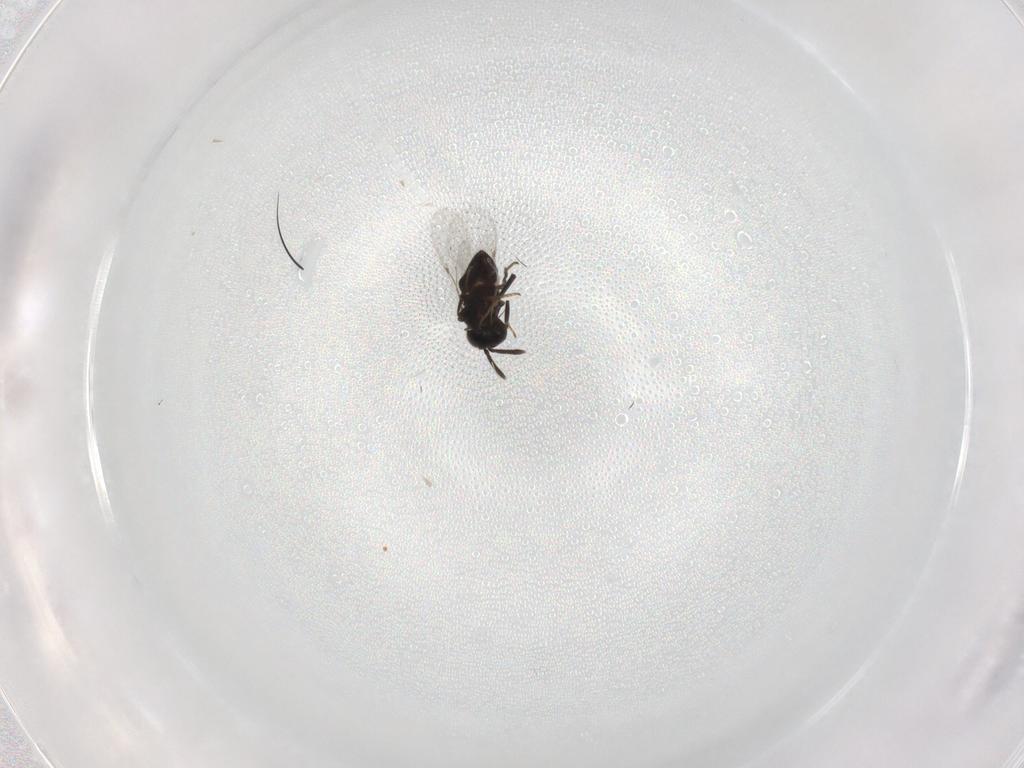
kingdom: Animalia
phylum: Arthropoda
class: Insecta
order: Hymenoptera
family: Encyrtidae
